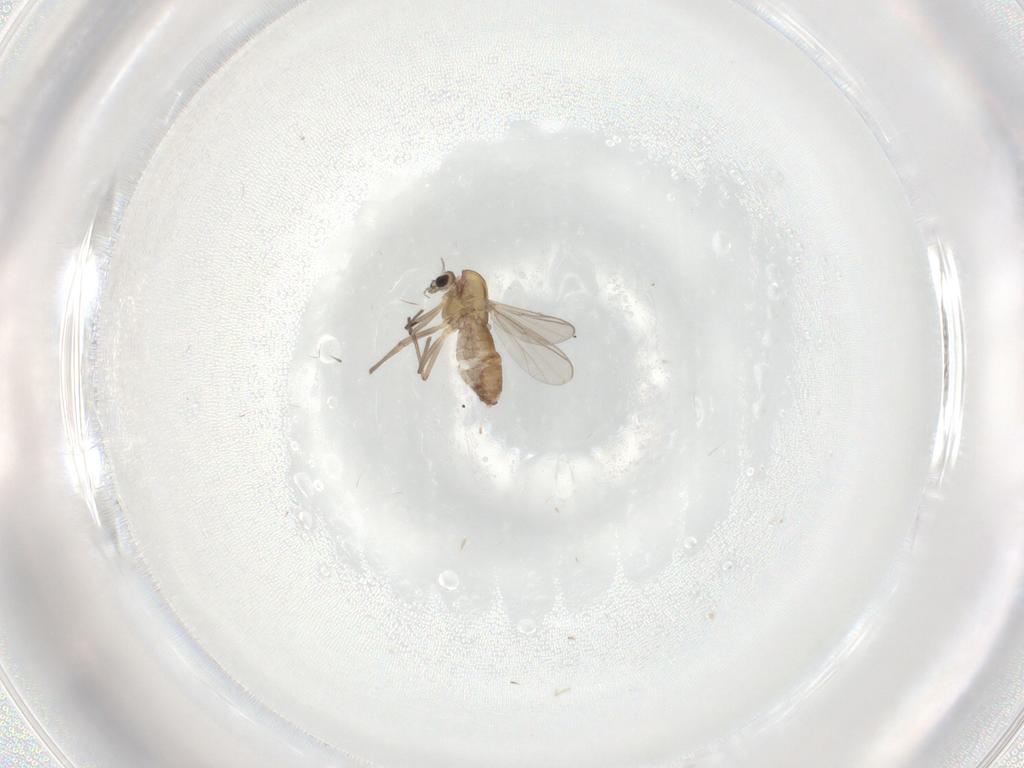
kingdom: Animalia
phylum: Arthropoda
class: Insecta
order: Diptera
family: Chironomidae
